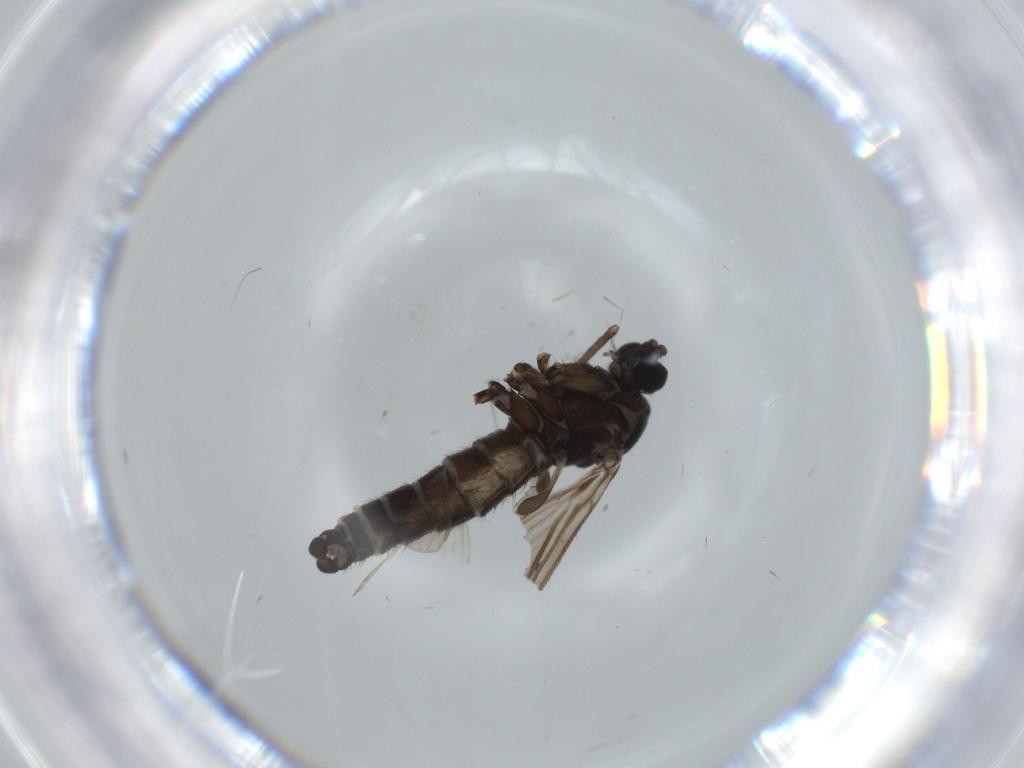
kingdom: Animalia
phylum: Arthropoda
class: Insecta
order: Diptera
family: Sciaridae
